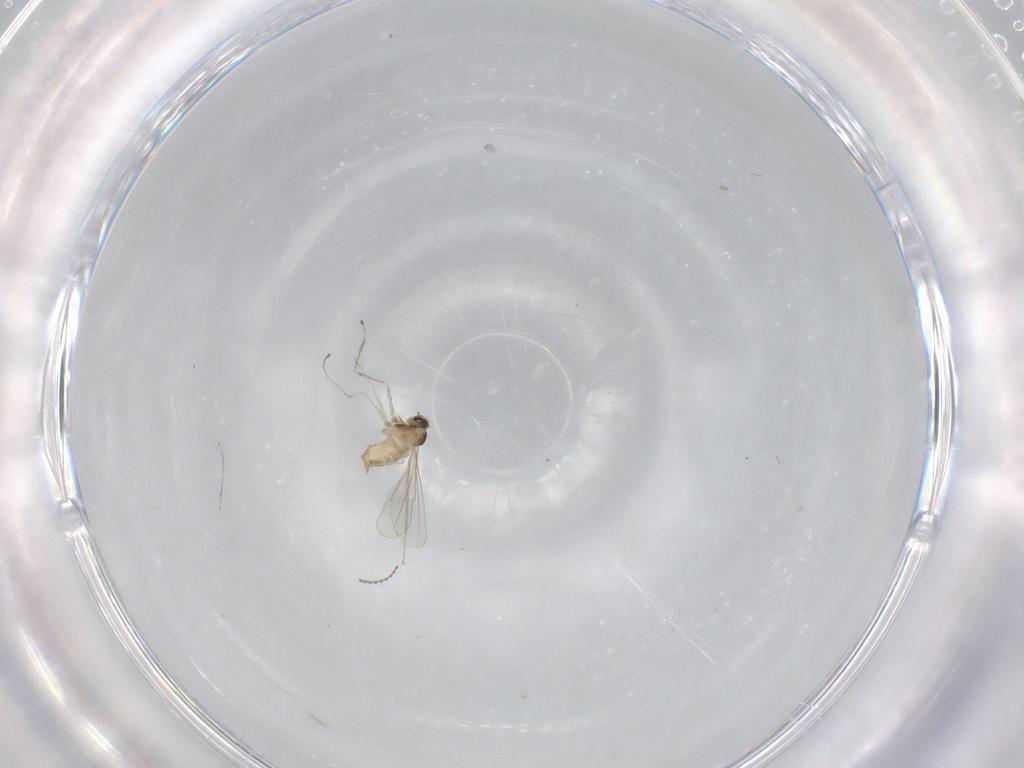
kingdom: Animalia
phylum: Arthropoda
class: Insecta
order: Diptera
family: Cecidomyiidae
